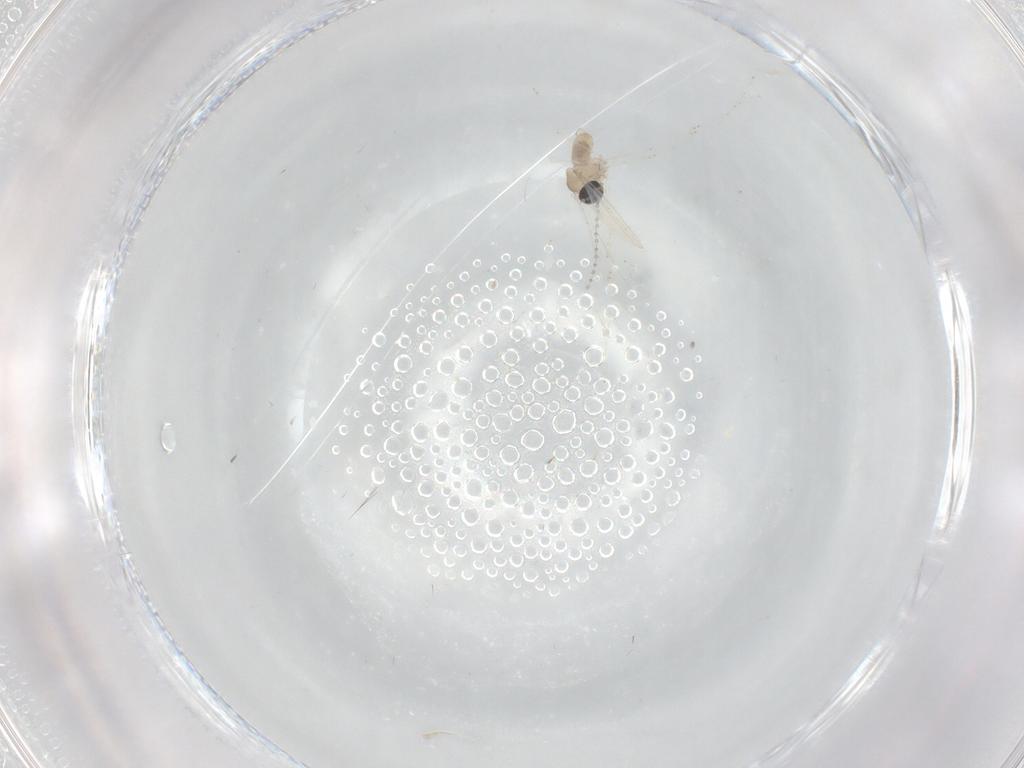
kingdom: Animalia
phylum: Arthropoda
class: Insecta
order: Diptera
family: Cecidomyiidae
